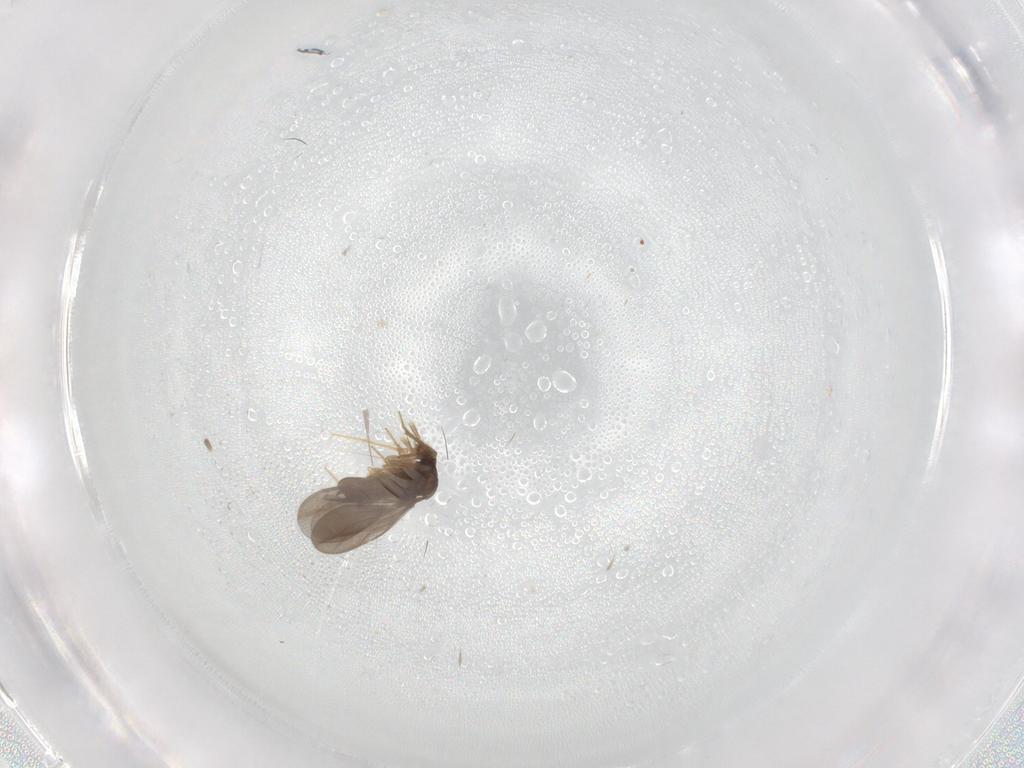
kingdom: Animalia
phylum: Arthropoda
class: Insecta
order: Hemiptera
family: Ceratocombidae
